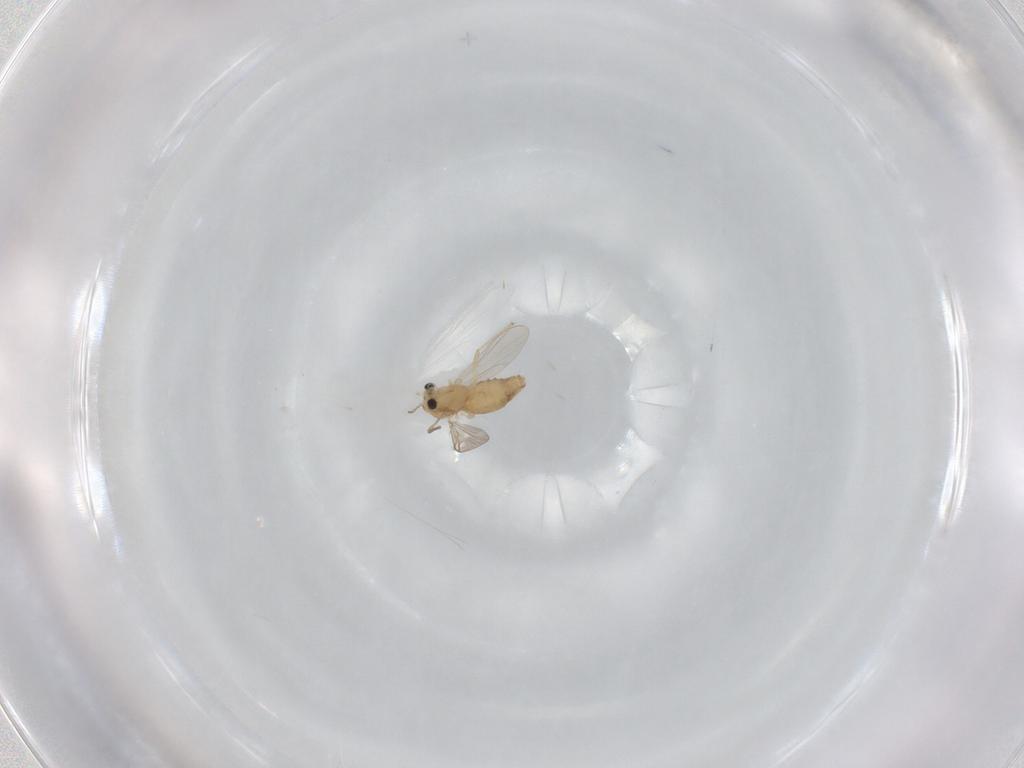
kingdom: Animalia
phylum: Arthropoda
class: Insecta
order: Diptera
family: Chironomidae
